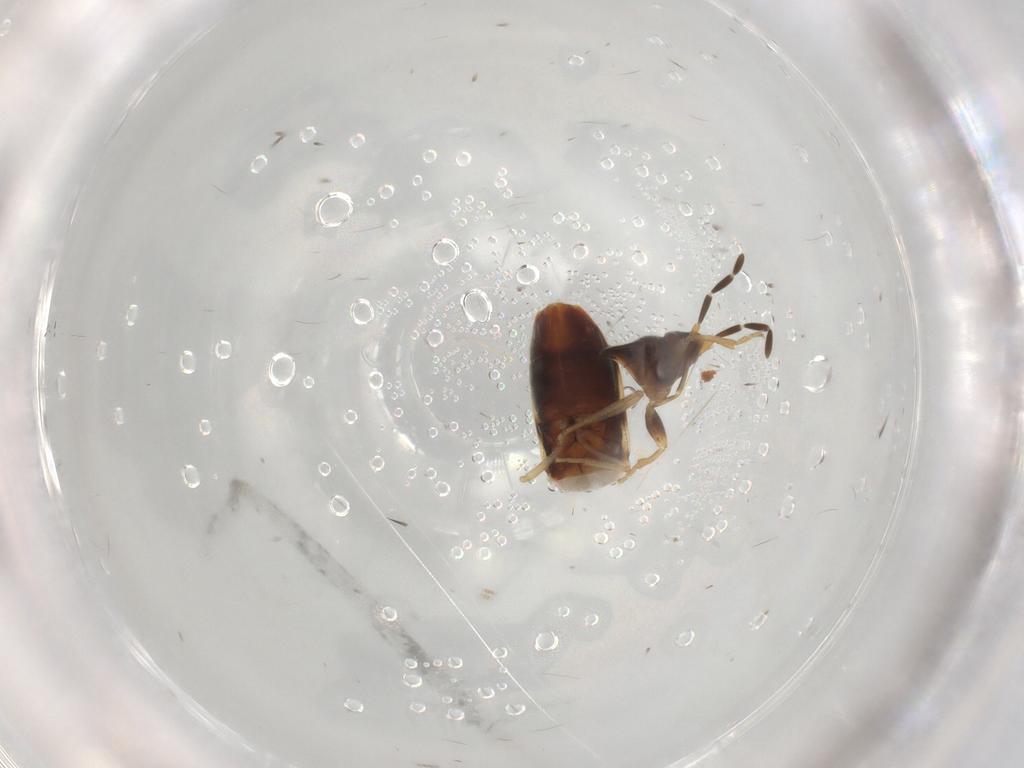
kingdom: Animalia
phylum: Arthropoda
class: Insecta
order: Hemiptera
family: Rhyparochromidae
